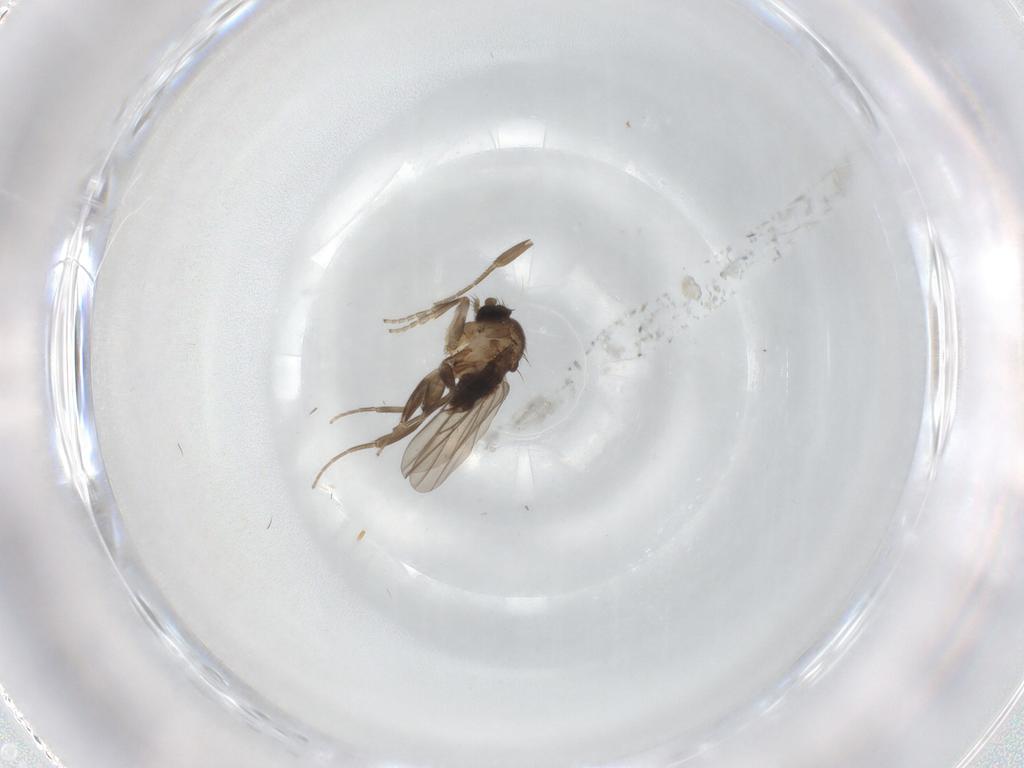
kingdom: Animalia
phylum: Arthropoda
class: Insecta
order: Diptera
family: Phoridae
